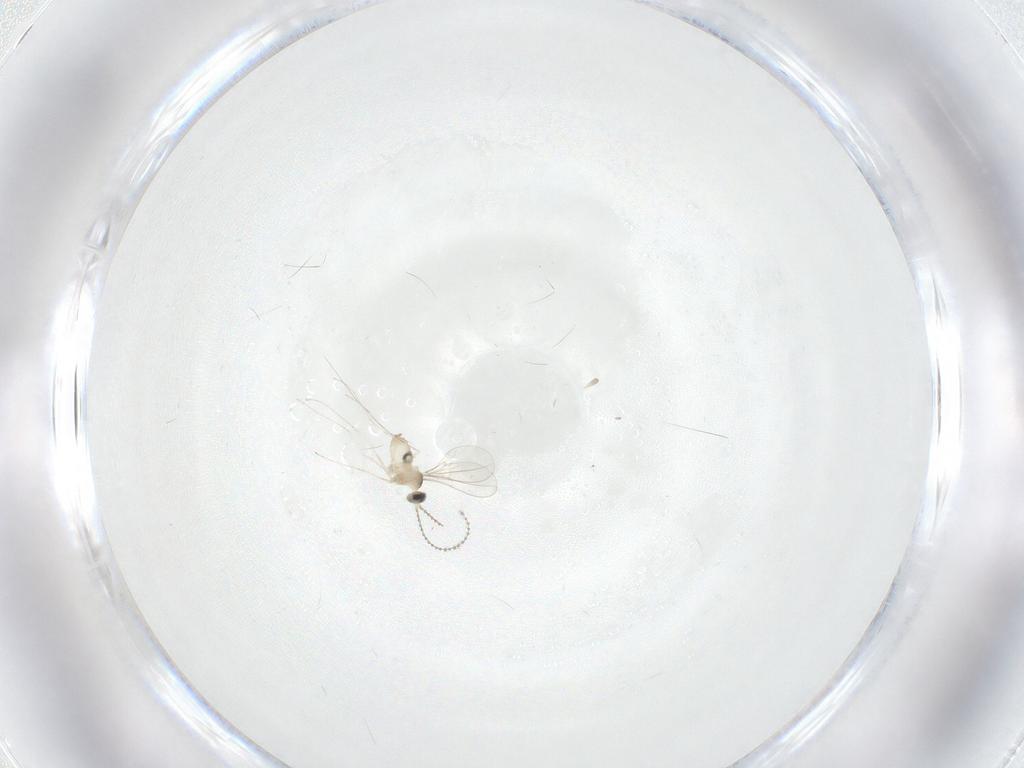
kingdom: Animalia
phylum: Arthropoda
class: Insecta
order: Diptera
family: Cecidomyiidae
